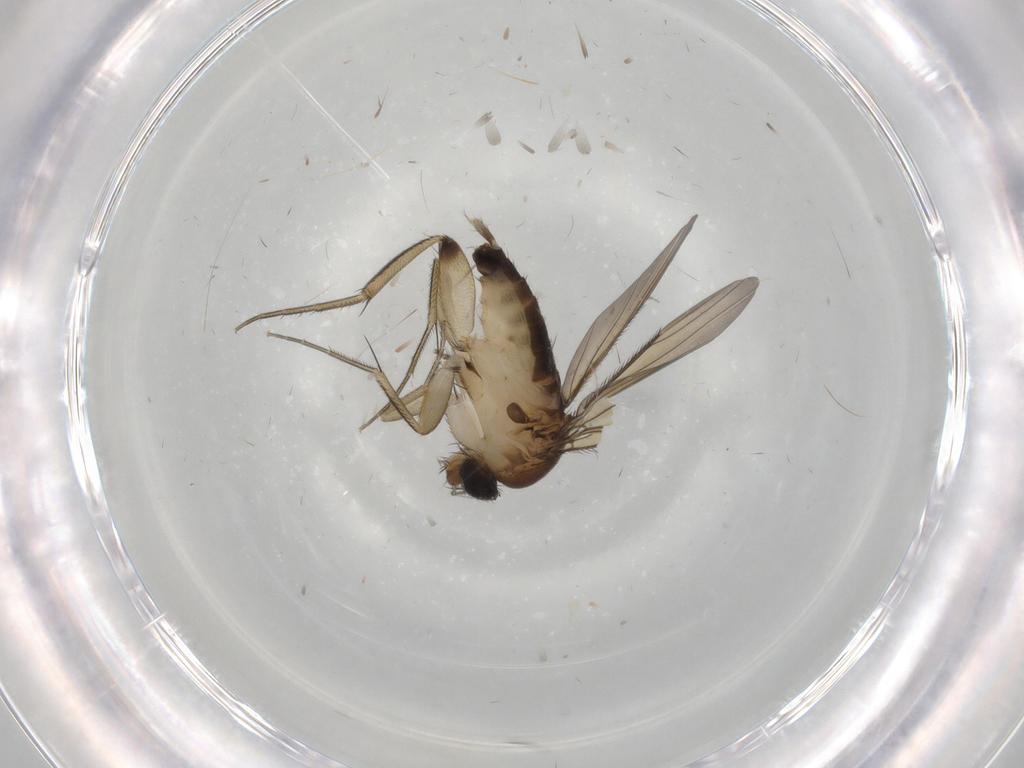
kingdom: Animalia
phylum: Arthropoda
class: Insecta
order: Diptera
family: Phoridae
